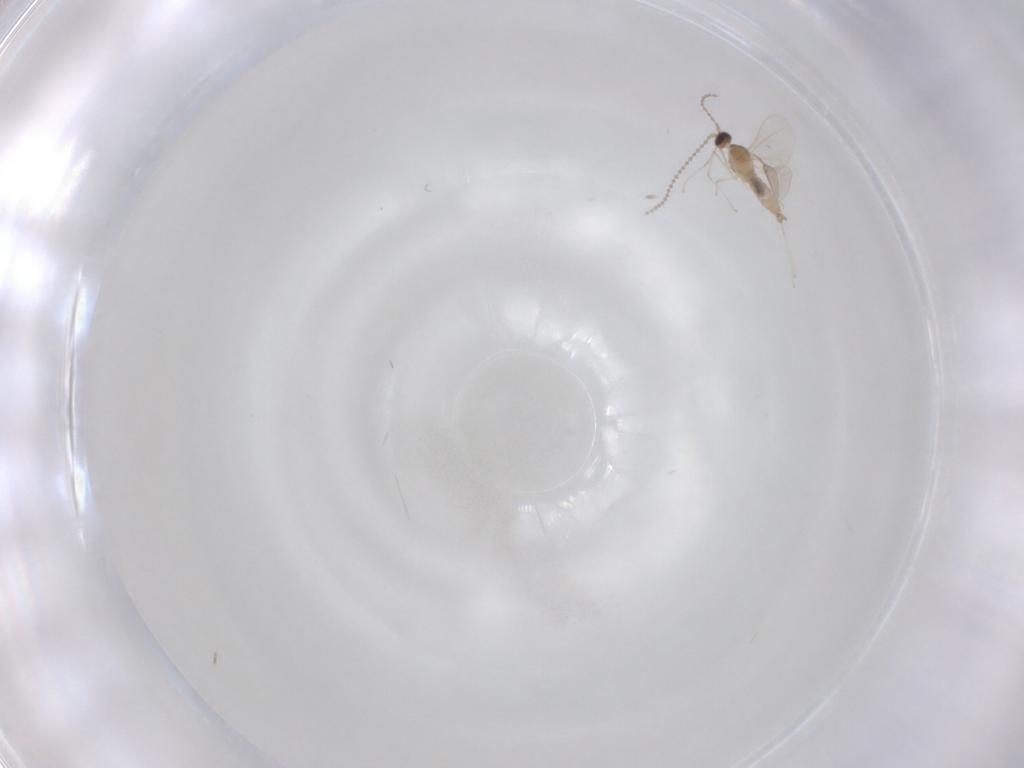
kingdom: Animalia
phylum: Arthropoda
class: Insecta
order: Diptera
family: Cecidomyiidae
